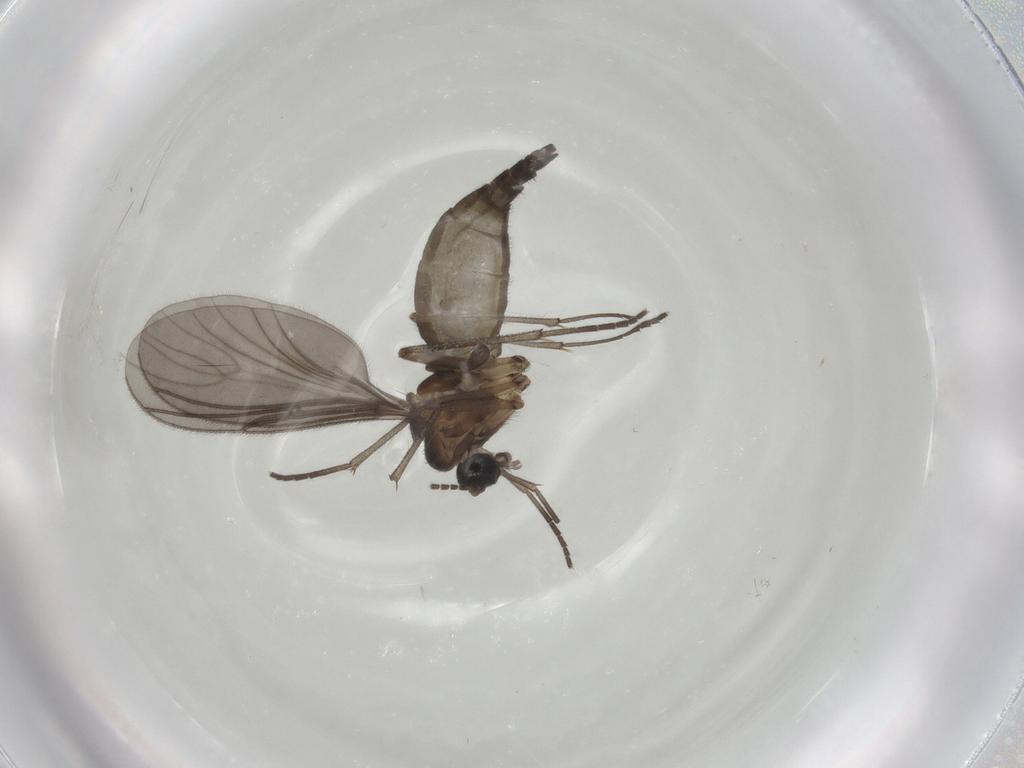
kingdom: Animalia
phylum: Arthropoda
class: Insecta
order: Diptera
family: Sciaridae
